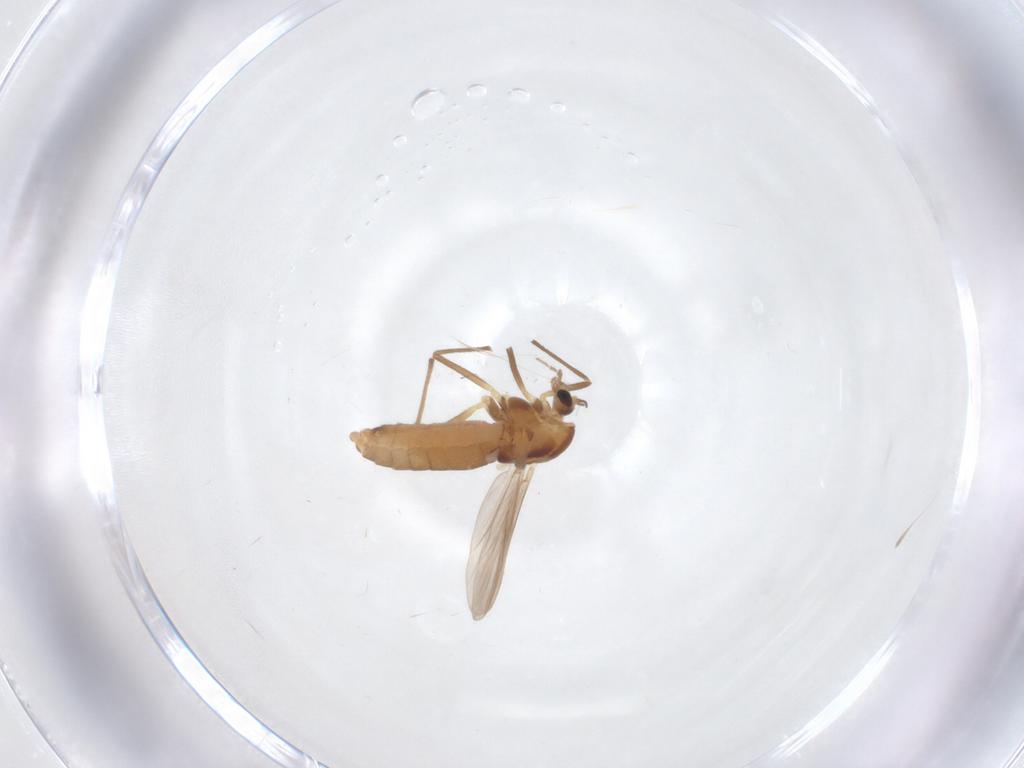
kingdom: Animalia
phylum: Arthropoda
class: Insecta
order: Diptera
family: Chironomidae
